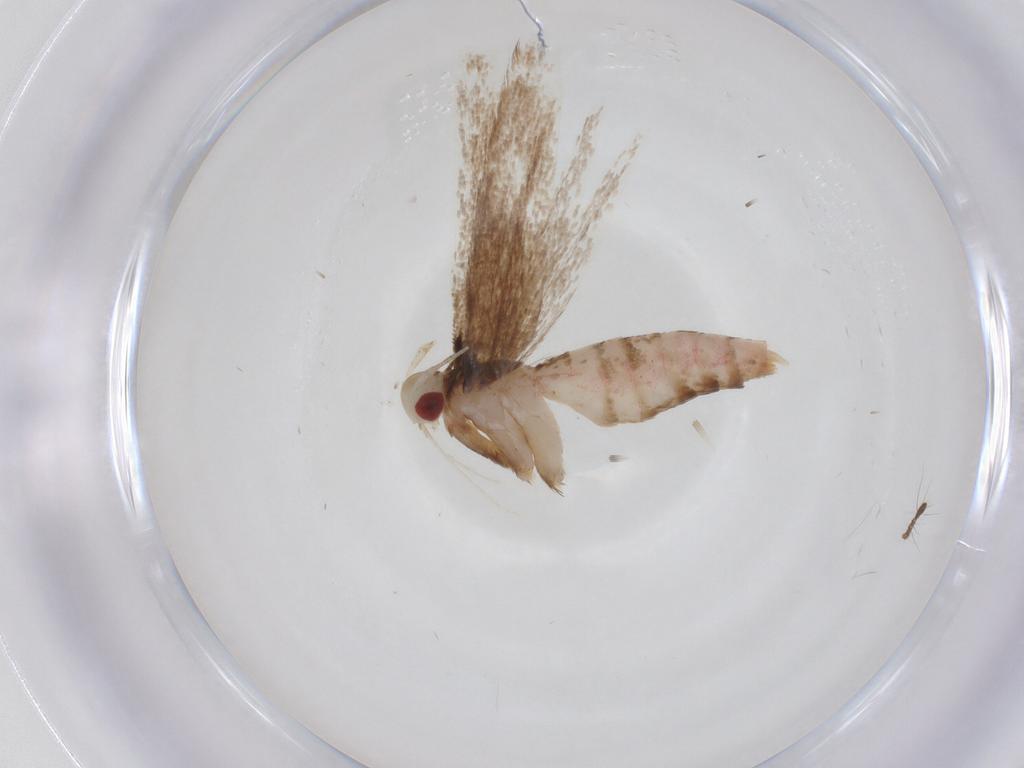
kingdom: Animalia
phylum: Arthropoda
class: Insecta
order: Lepidoptera
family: Cosmopterigidae
